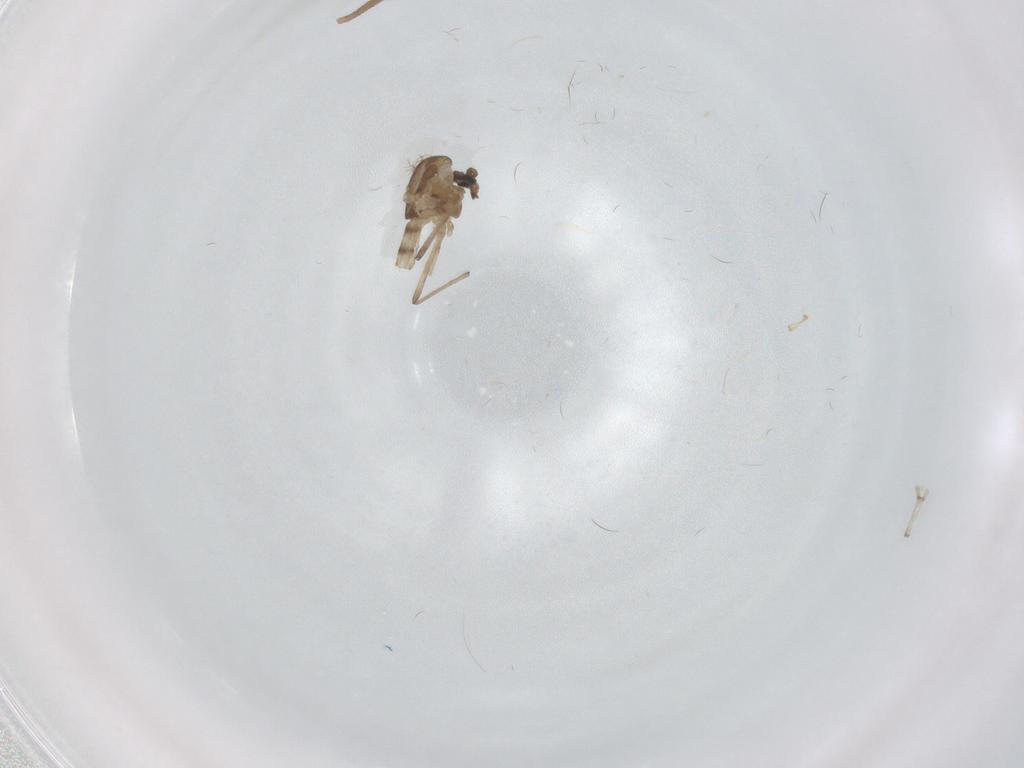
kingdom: Animalia
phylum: Arthropoda
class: Insecta
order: Diptera
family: Chironomidae
